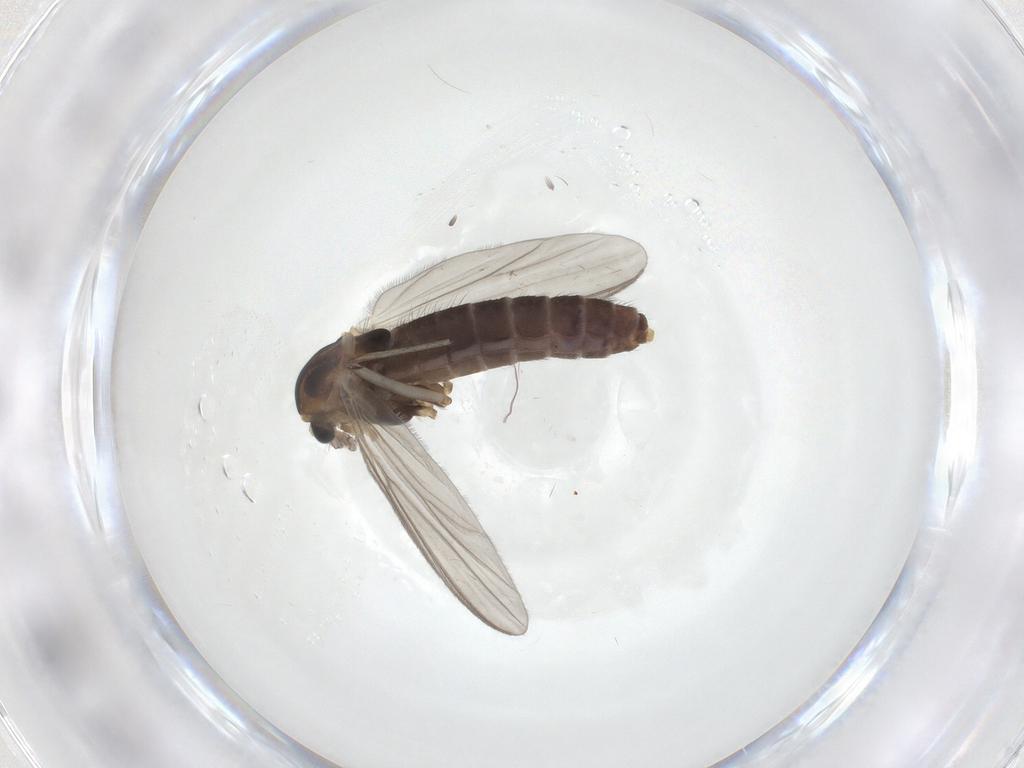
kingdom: Animalia
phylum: Arthropoda
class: Insecta
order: Diptera
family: Chironomidae
